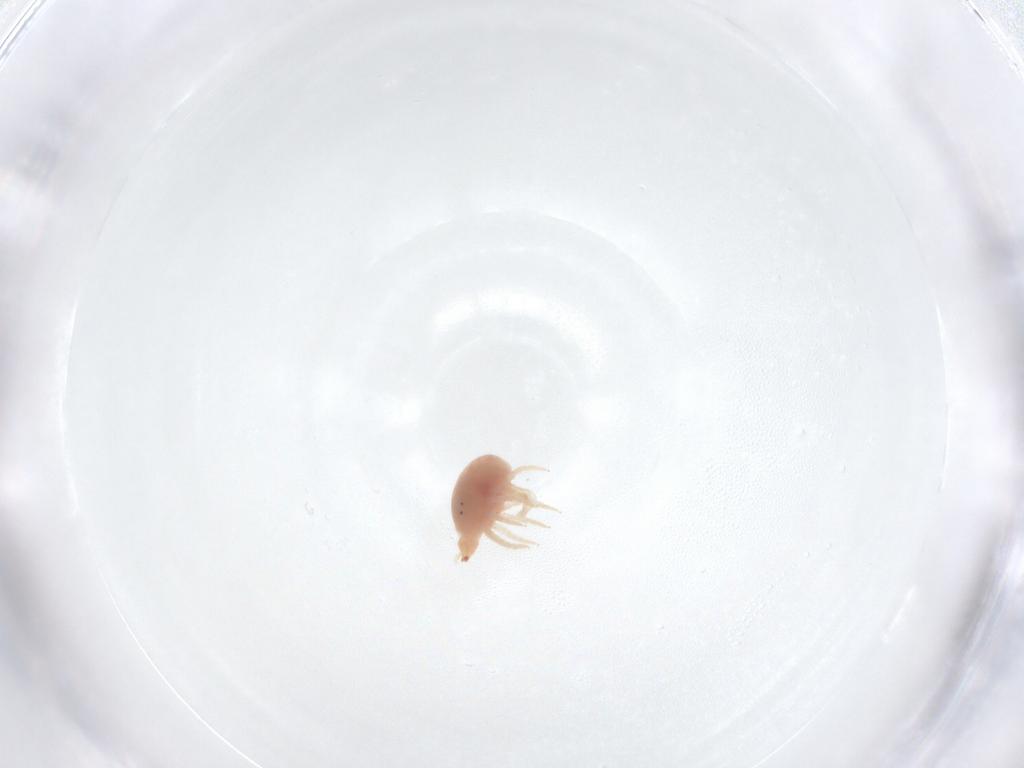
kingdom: Animalia
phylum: Arthropoda
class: Arachnida
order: Trombidiformes
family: Bdellidae
